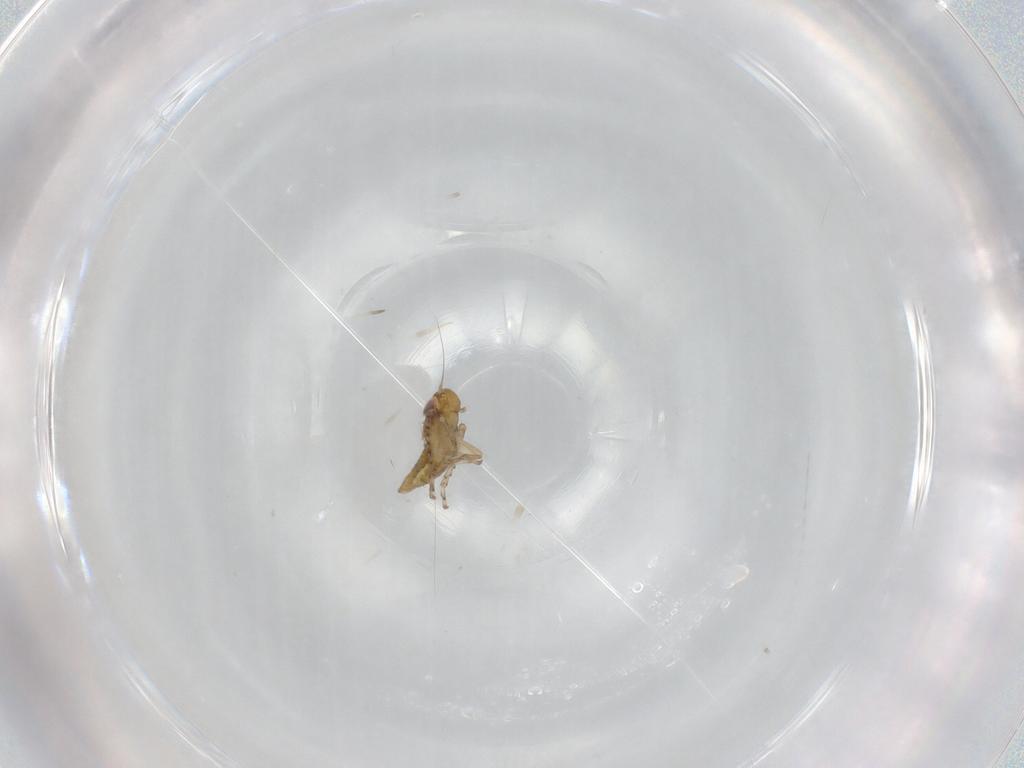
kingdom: Animalia
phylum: Arthropoda
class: Insecta
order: Hemiptera
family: Cicadellidae
